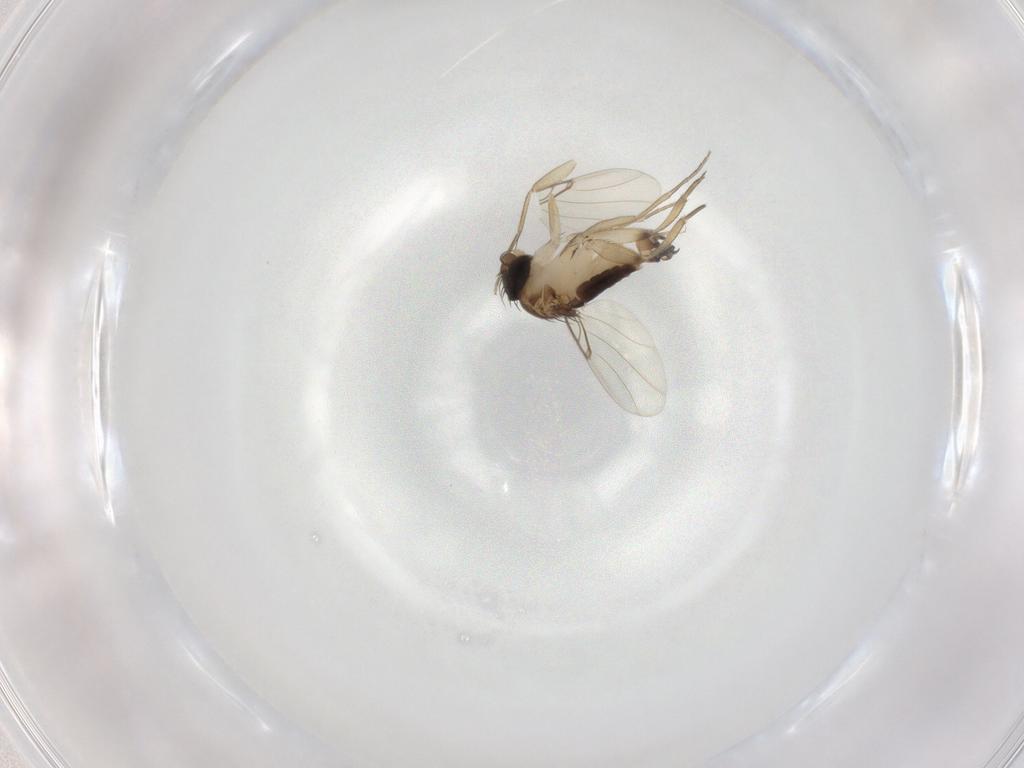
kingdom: Animalia
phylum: Arthropoda
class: Insecta
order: Diptera
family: Phoridae
